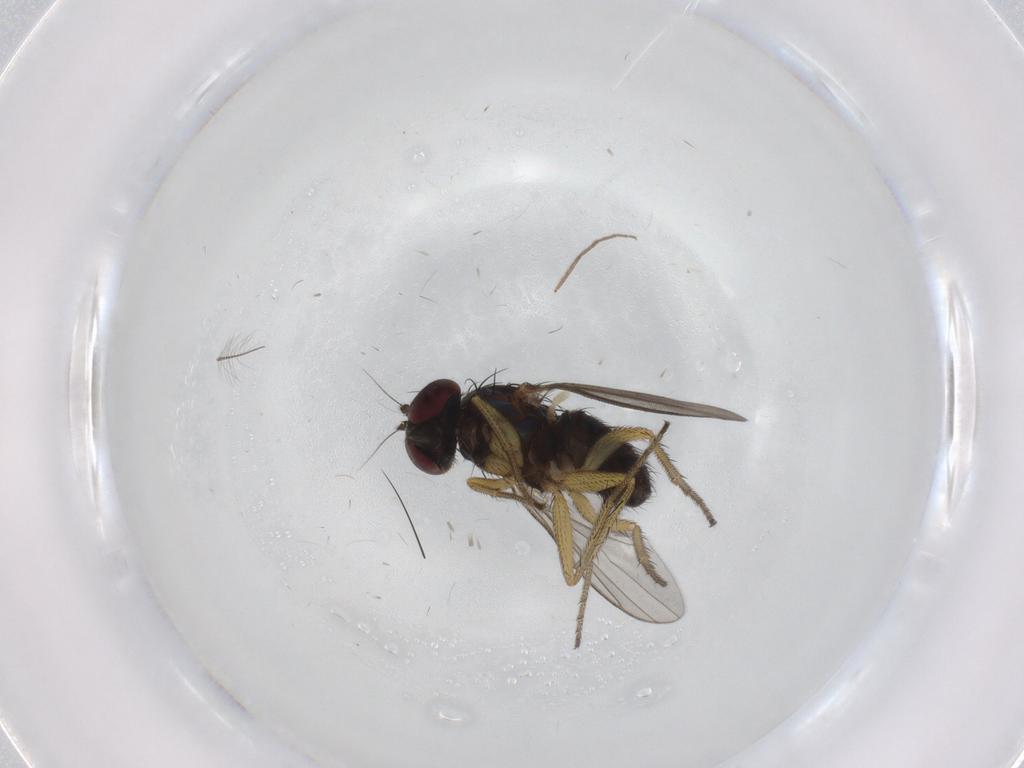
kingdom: Animalia
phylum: Arthropoda
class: Insecta
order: Diptera
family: Dolichopodidae
